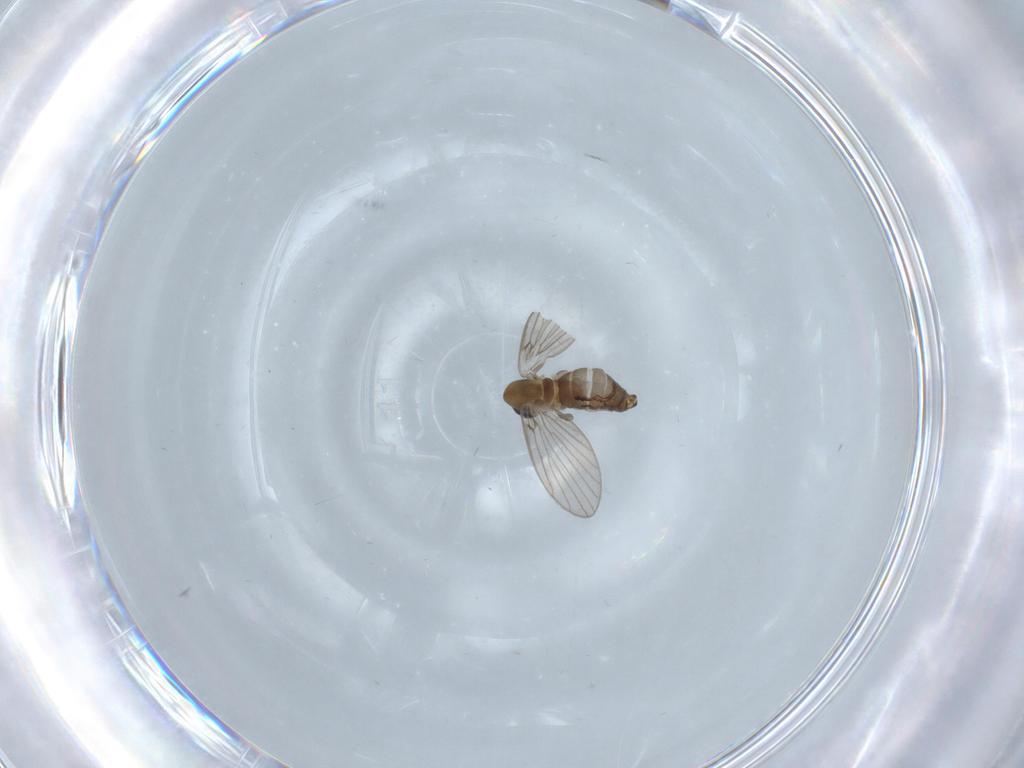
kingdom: Animalia
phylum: Arthropoda
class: Insecta
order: Diptera
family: Psychodidae
